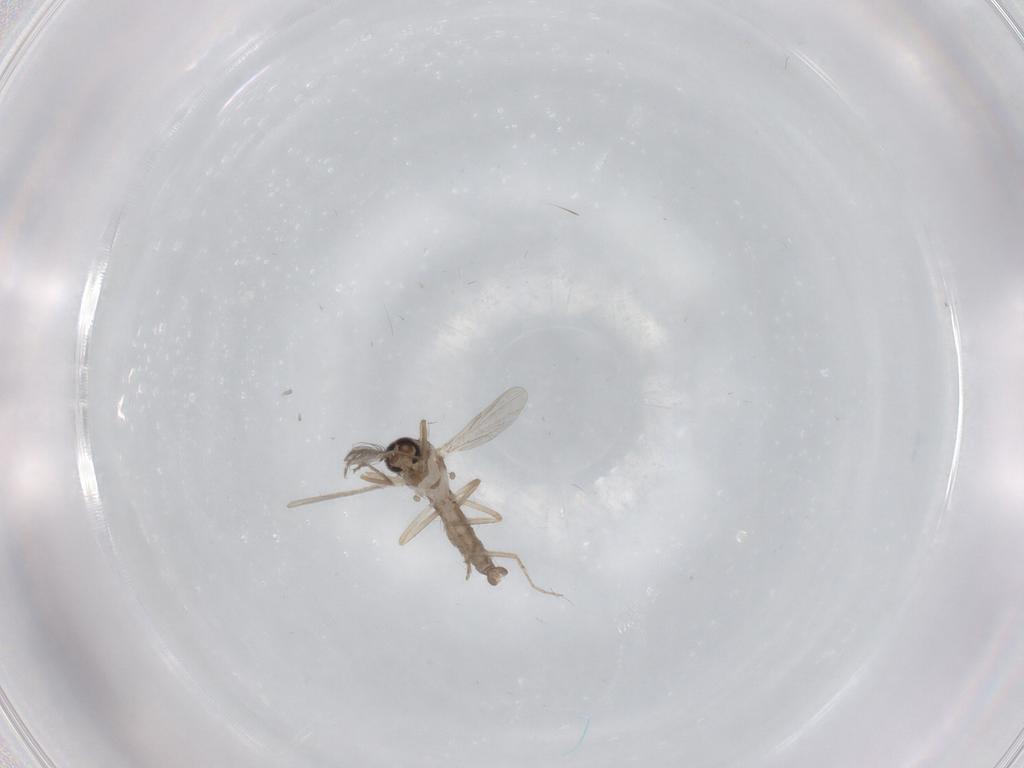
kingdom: Animalia
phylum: Arthropoda
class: Insecta
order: Diptera
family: Ceratopogonidae
